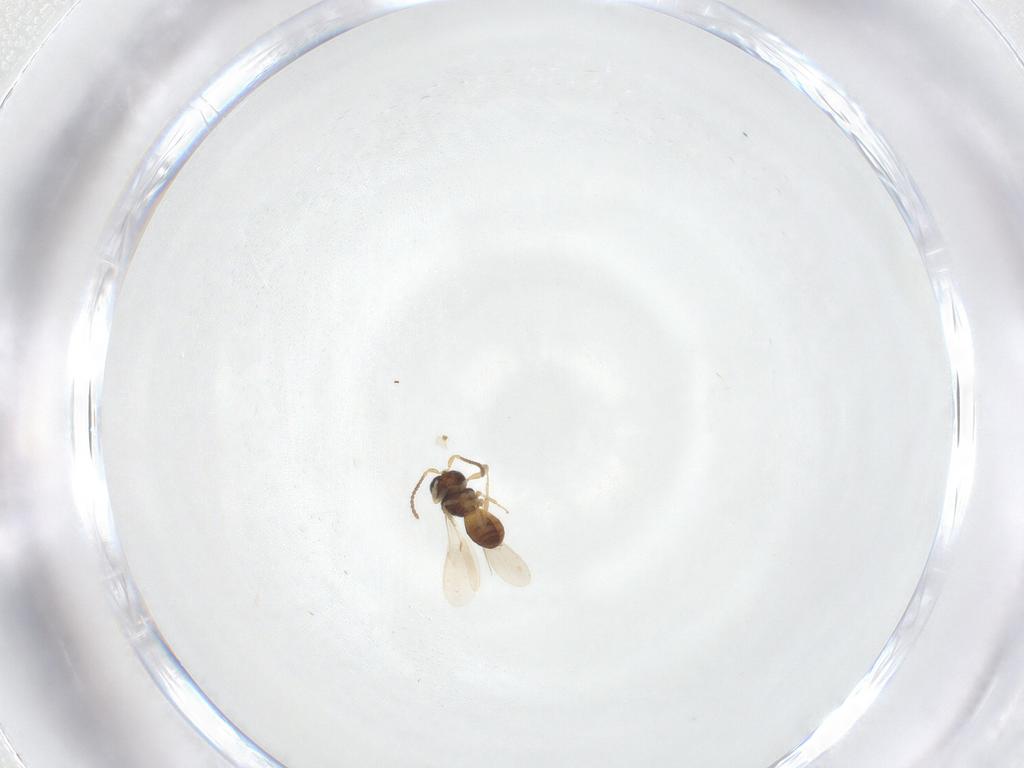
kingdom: Animalia
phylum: Arthropoda
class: Insecta
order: Hymenoptera
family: Scelionidae
